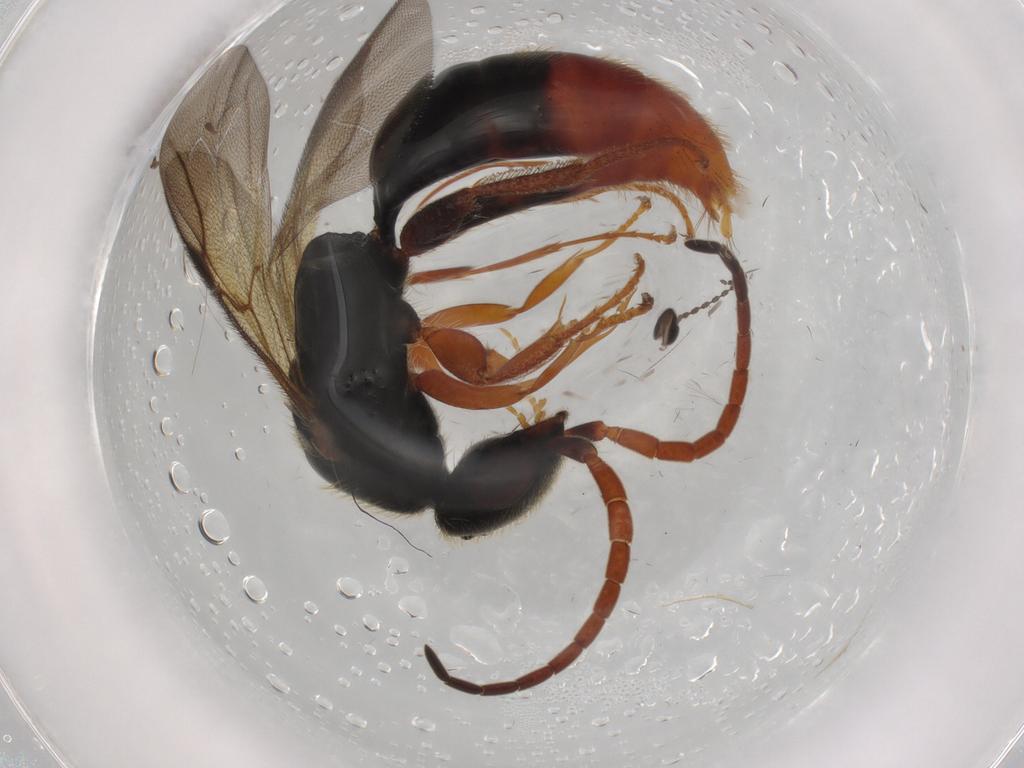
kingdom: Animalia
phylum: Arthropoda
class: Insecta
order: Hymenoptera
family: Bethylidae
